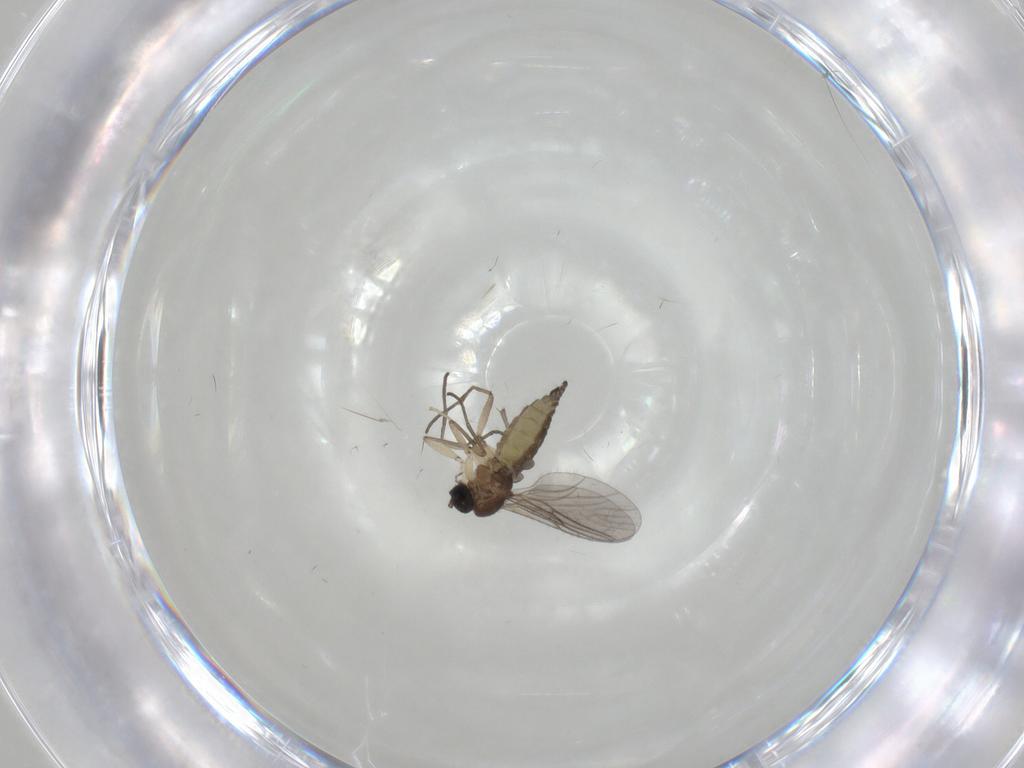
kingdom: Animalia
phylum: Arthropoda
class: Insecta
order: Diptera
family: Sciaridae
